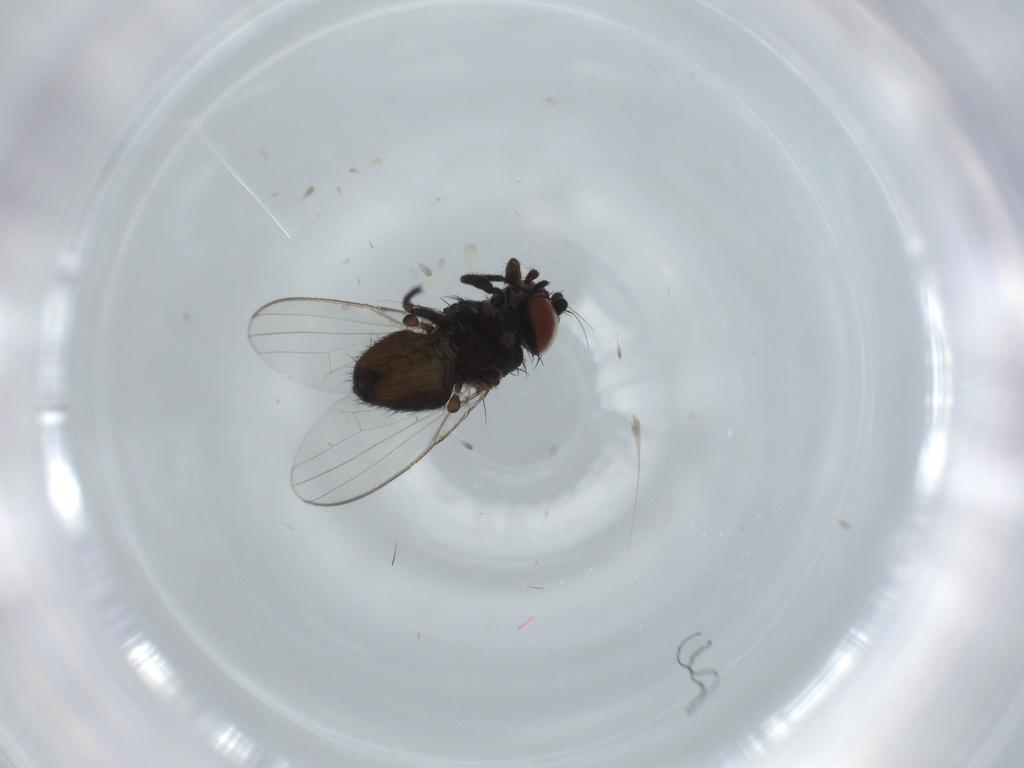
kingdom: Animalia
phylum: Arthropoda
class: Insecta
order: Diptera
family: Milichiidae
